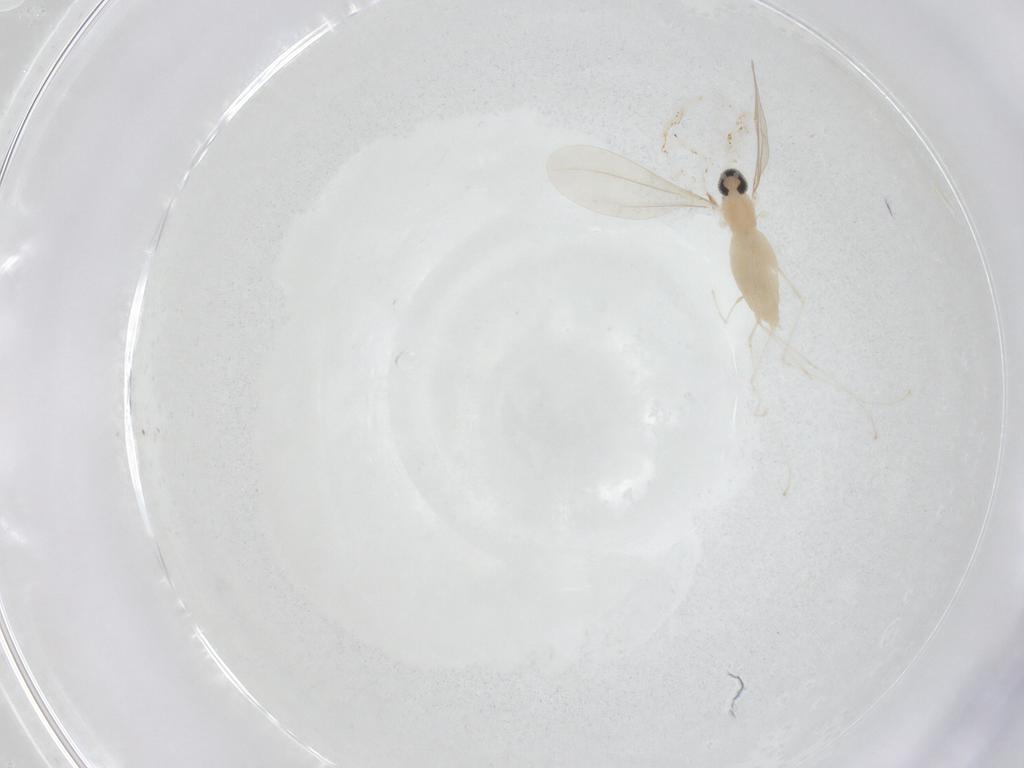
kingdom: Animalia
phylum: Arthropoda
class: Insecta
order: Diptera
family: Cecidomyiidae
